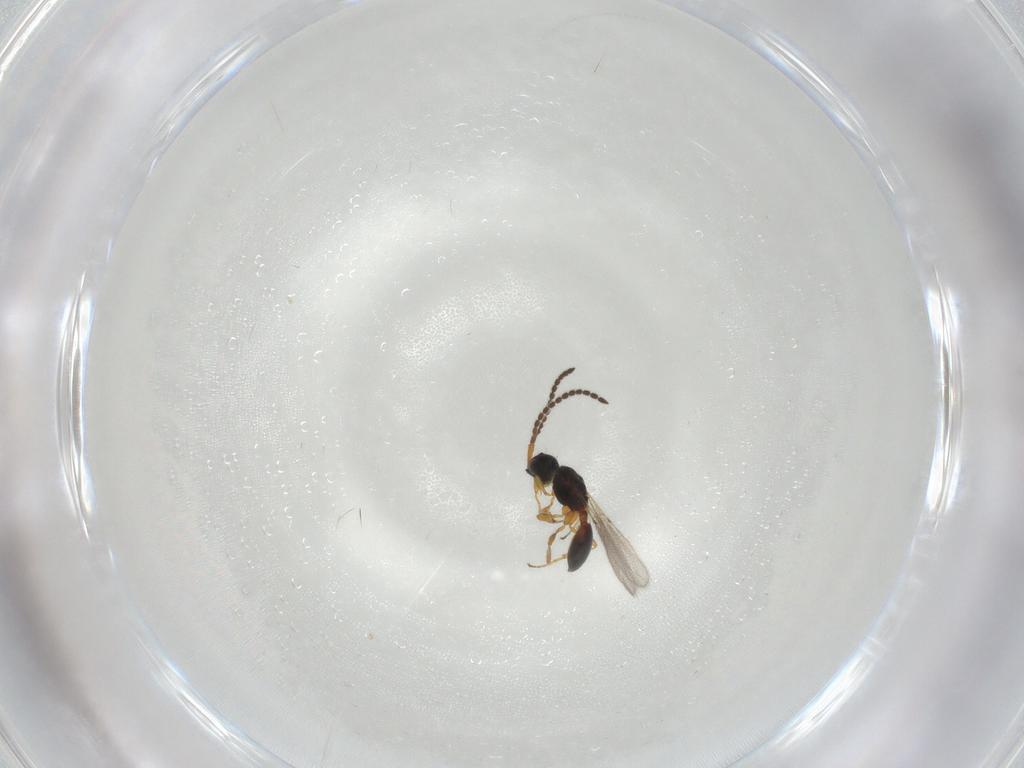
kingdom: Animalia
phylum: Arthropoda
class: Insecta
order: Hymenoptera
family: Diapriidae
